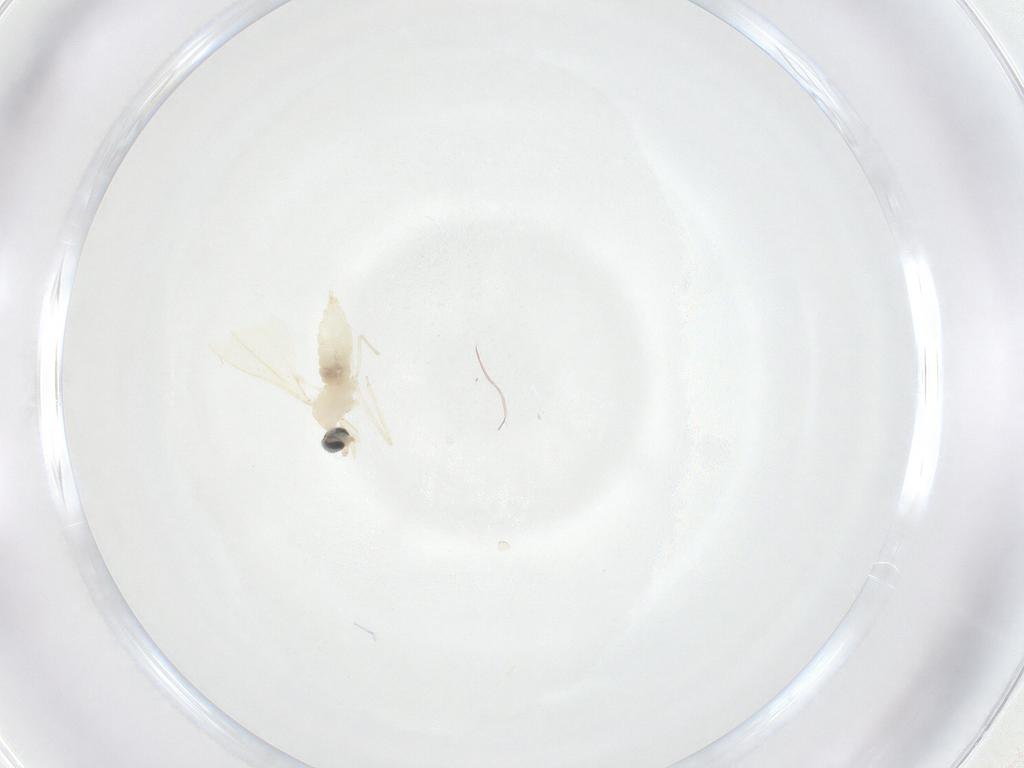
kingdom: Animalia
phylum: Arthropoda
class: Insecta
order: Diptera
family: Cecidomyiidae
